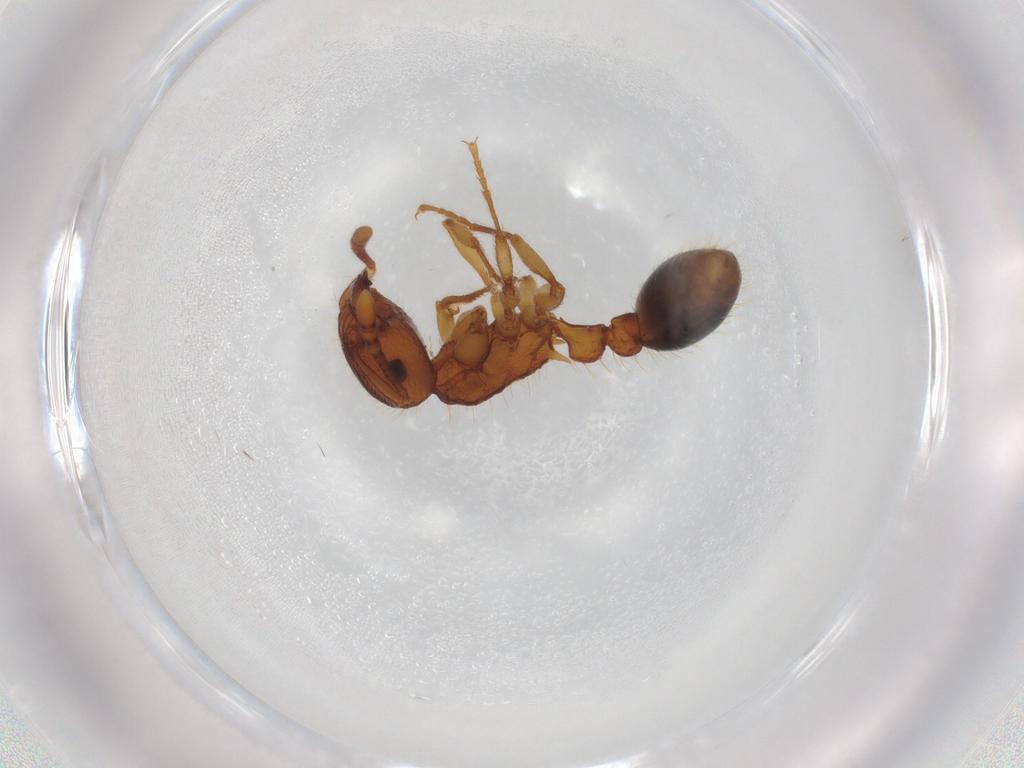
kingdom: Animalia
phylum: Arthropoda
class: Insecta
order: Hymenoptera
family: Formicidae
